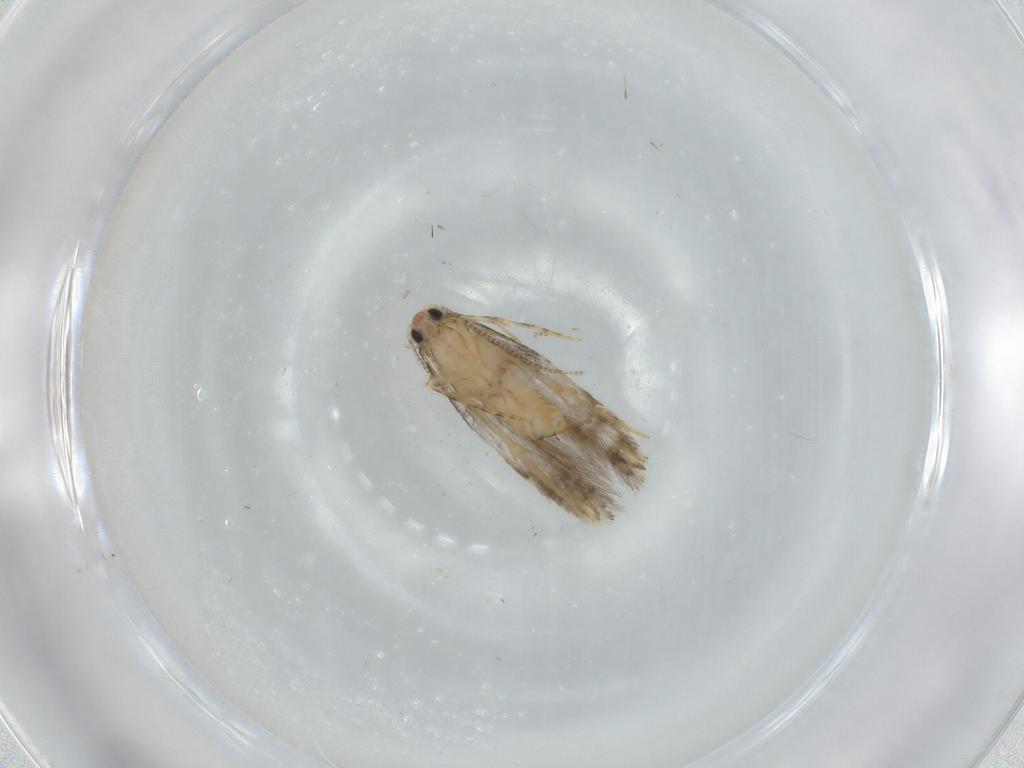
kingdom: Animalia
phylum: Arthropoda
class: Insecta
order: Lepidoptera
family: Tineidae
